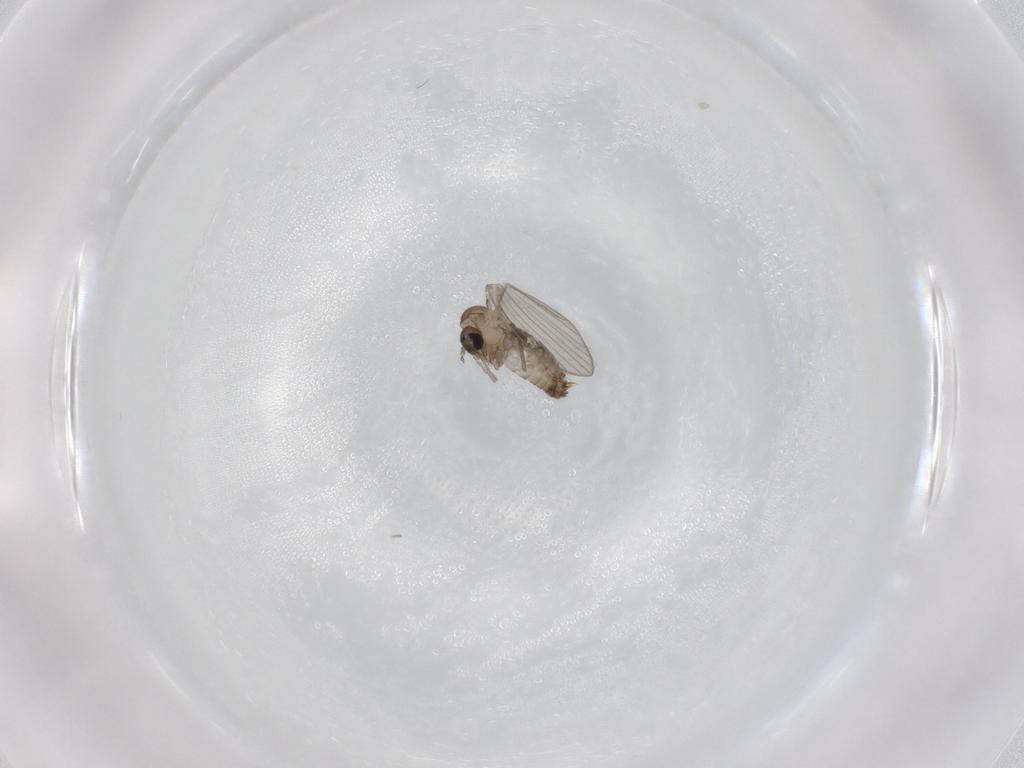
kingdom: Animalia
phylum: Arthropoda
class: Insecta
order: Diptera
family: Psychodidae
